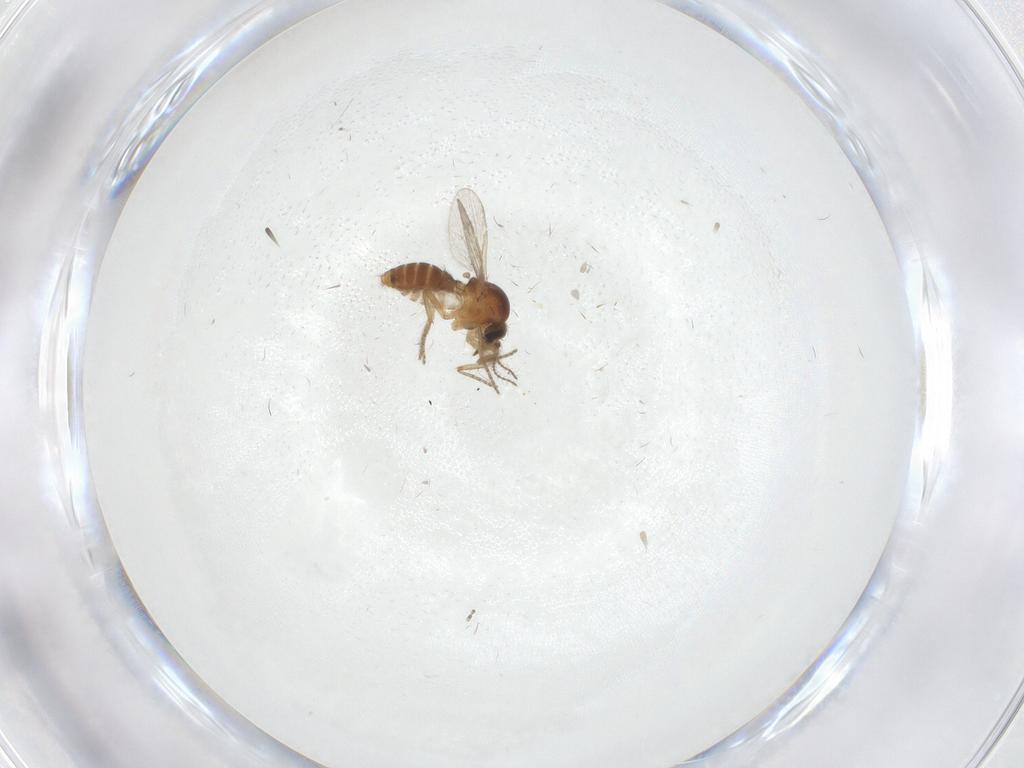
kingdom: Animalia
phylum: Arthropoda
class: Insecta
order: Diptera
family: Ceratopogonidae
